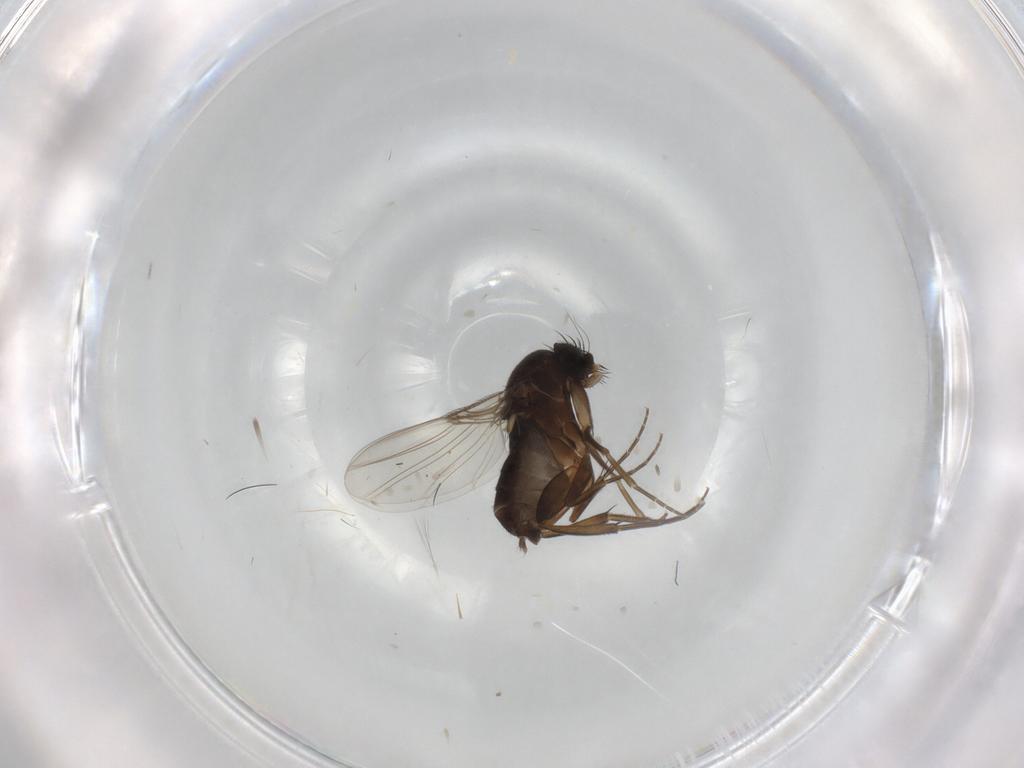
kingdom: Animalia
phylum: Arthropoda
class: Insecta
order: Diptera
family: Phoridae
